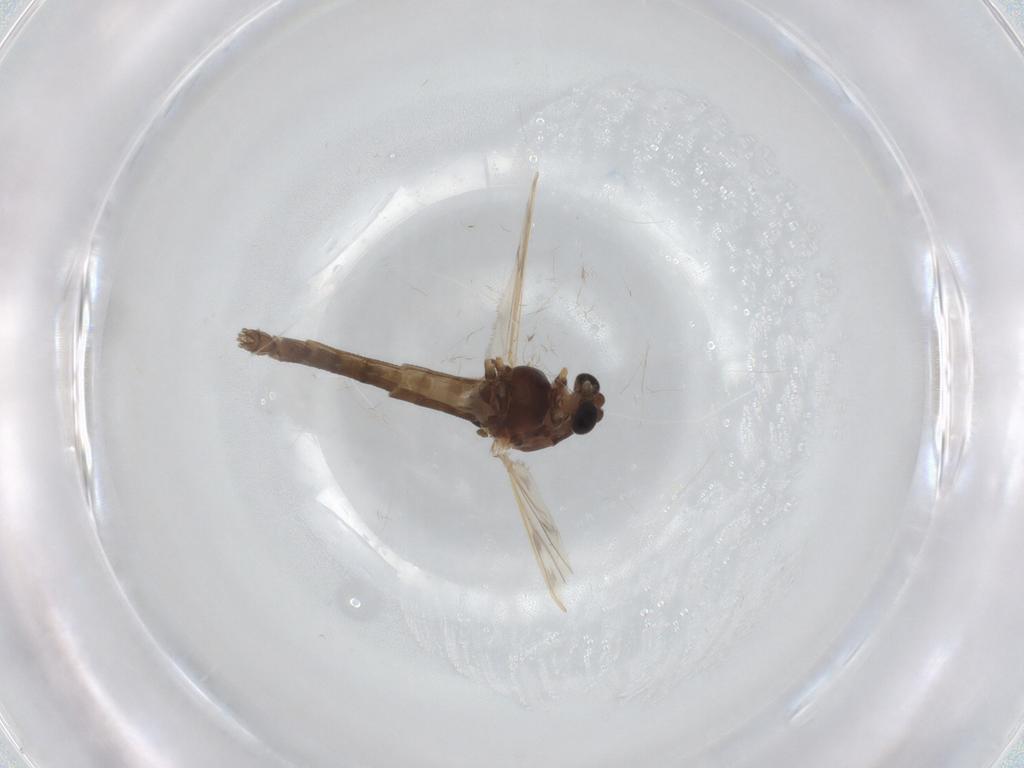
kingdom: Animalia
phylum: Arthropoda
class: Insecta
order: Diptera
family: Chironomidae
